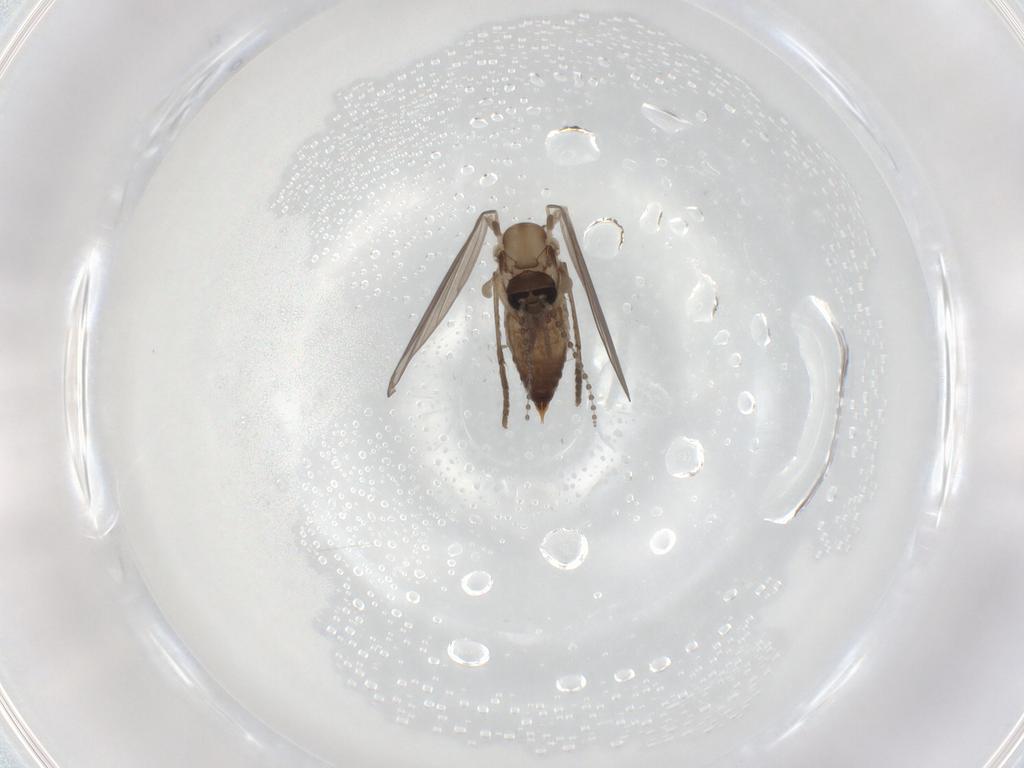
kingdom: Animalia
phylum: Arthropoda
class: Insecta
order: Diptera
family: Psychodidae
